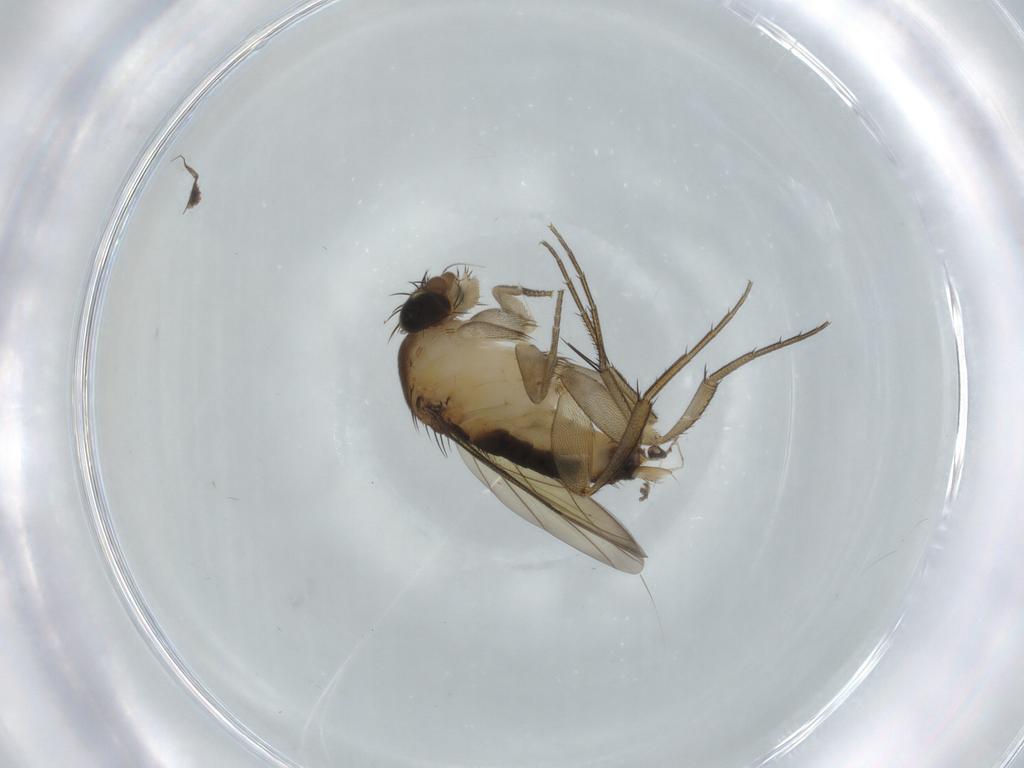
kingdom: Animalia
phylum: Arthropoda
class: Insecta
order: Diptera
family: Phoridae
